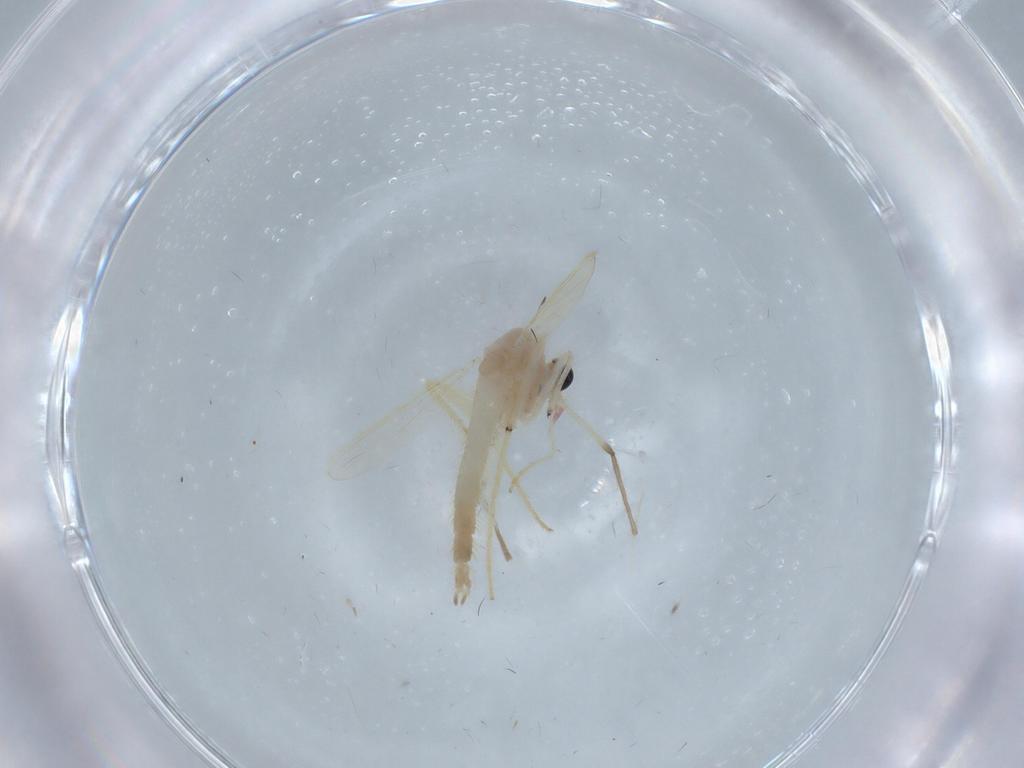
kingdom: Animalia
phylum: Arthropoda
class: Insecta
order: Diptera
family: Chironomidae
